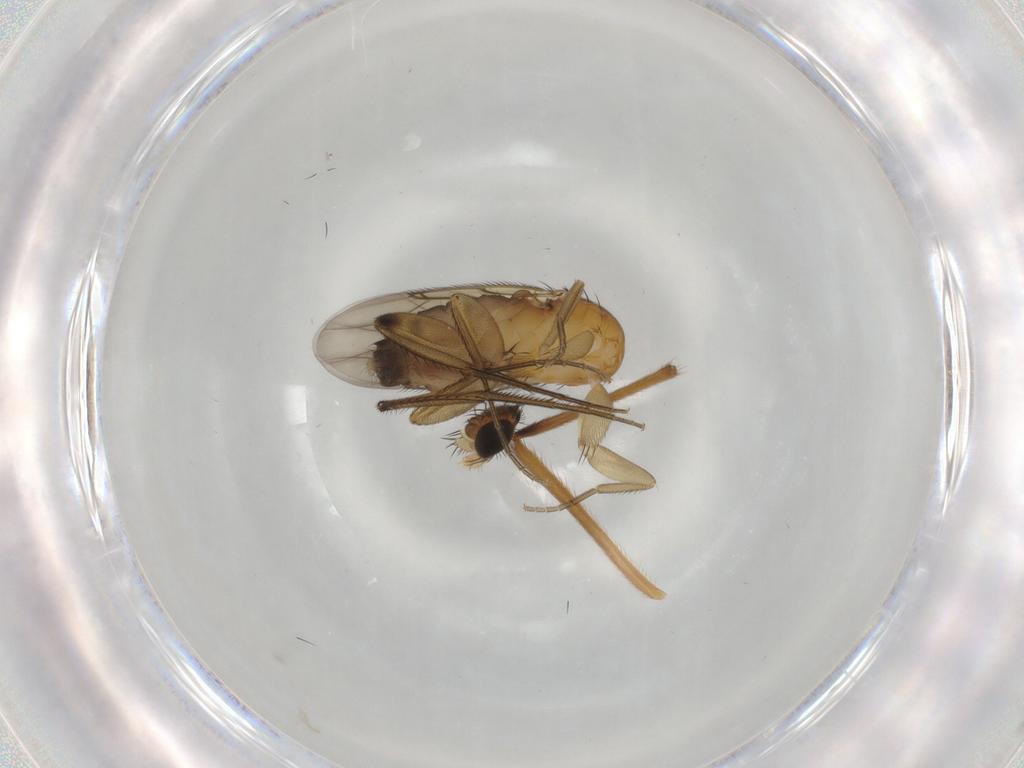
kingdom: Animalia
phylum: Arthropoda
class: Insecta
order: Diptera
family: Phoridae
